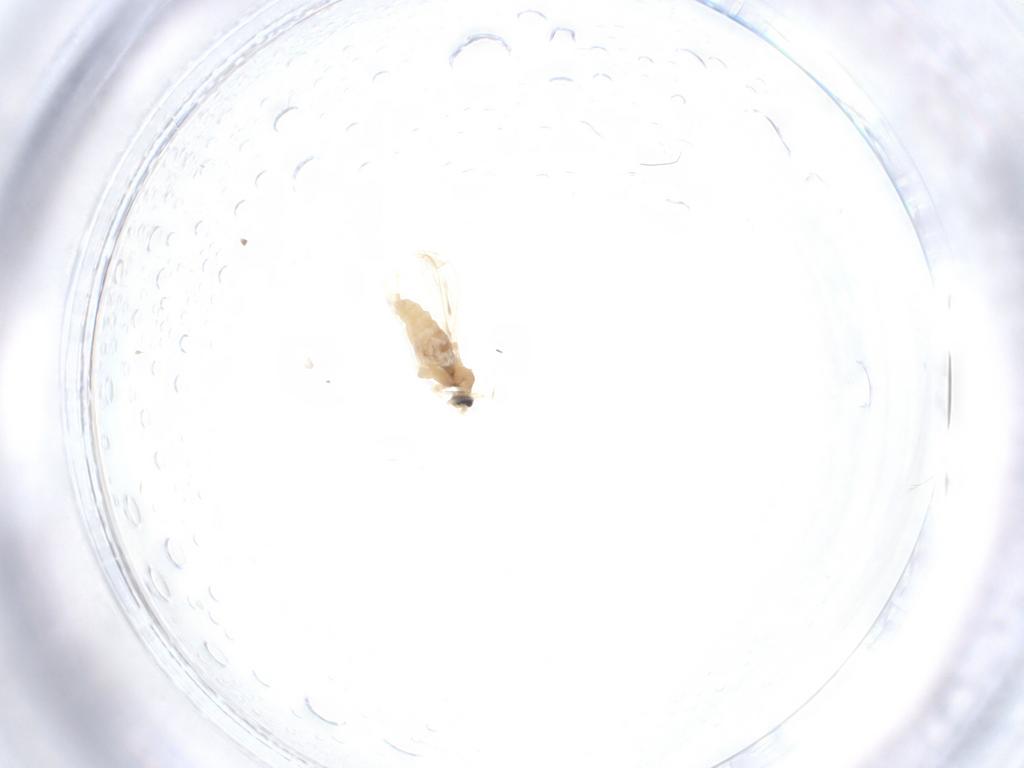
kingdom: Animalia
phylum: Arthropoda
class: Insecta
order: Diptera
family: Cecidomyiidae
